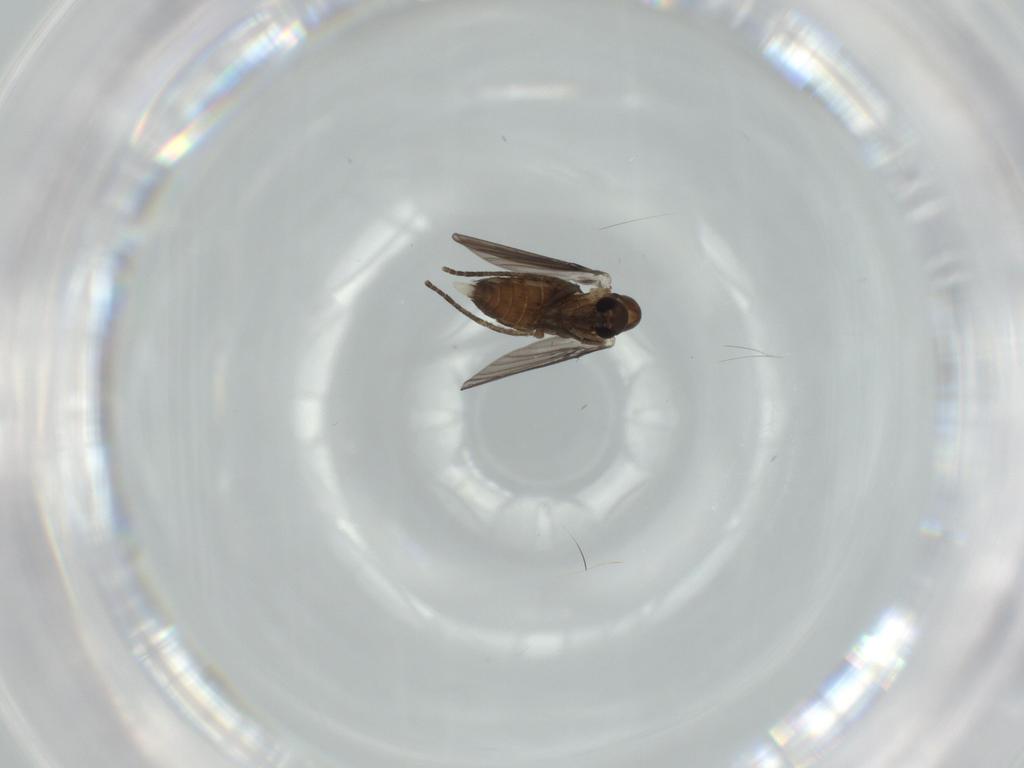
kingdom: Animalia
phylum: Arthropoda
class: Insecta
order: Diptera
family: Psychodidae
